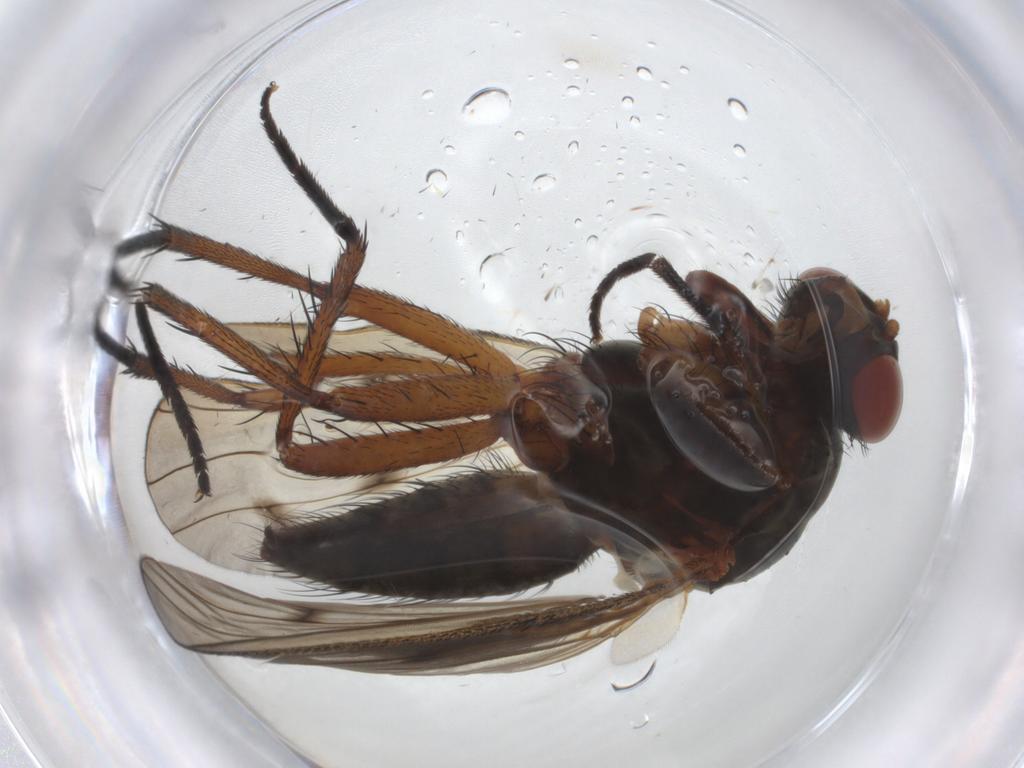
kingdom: Animalia
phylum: Arthropoda
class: Insecta
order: Diptera
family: Anthomyiidae
